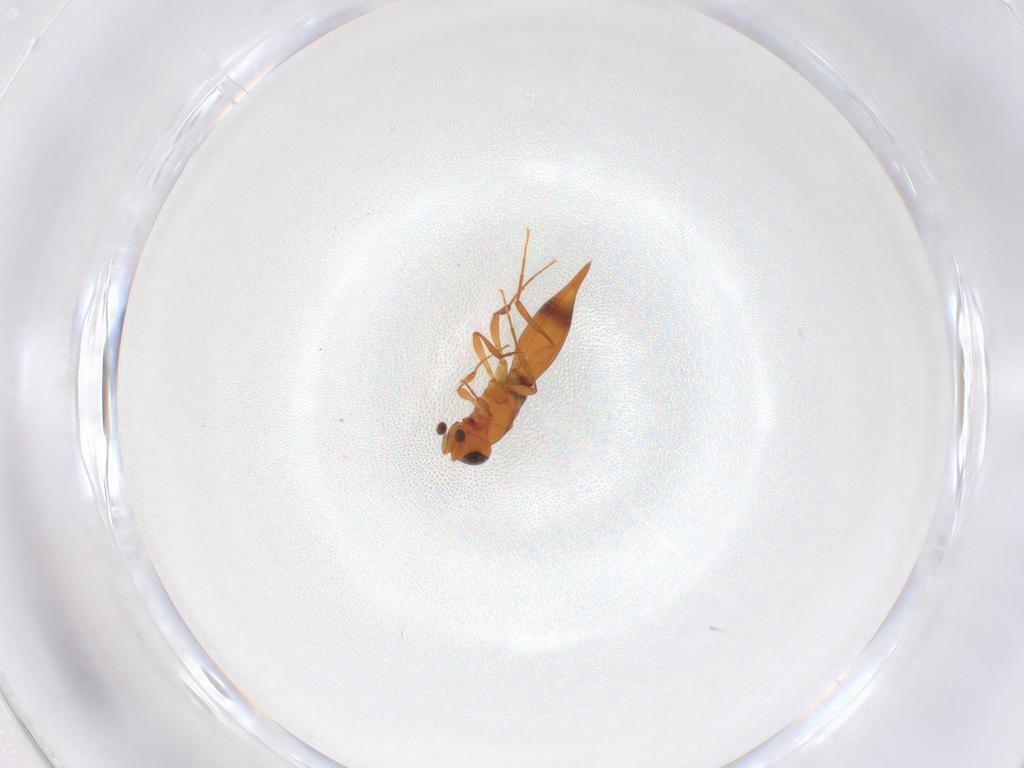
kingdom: Animalia
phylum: Arthropoda
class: Insecta
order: Hymenoptera
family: Platygastridae
